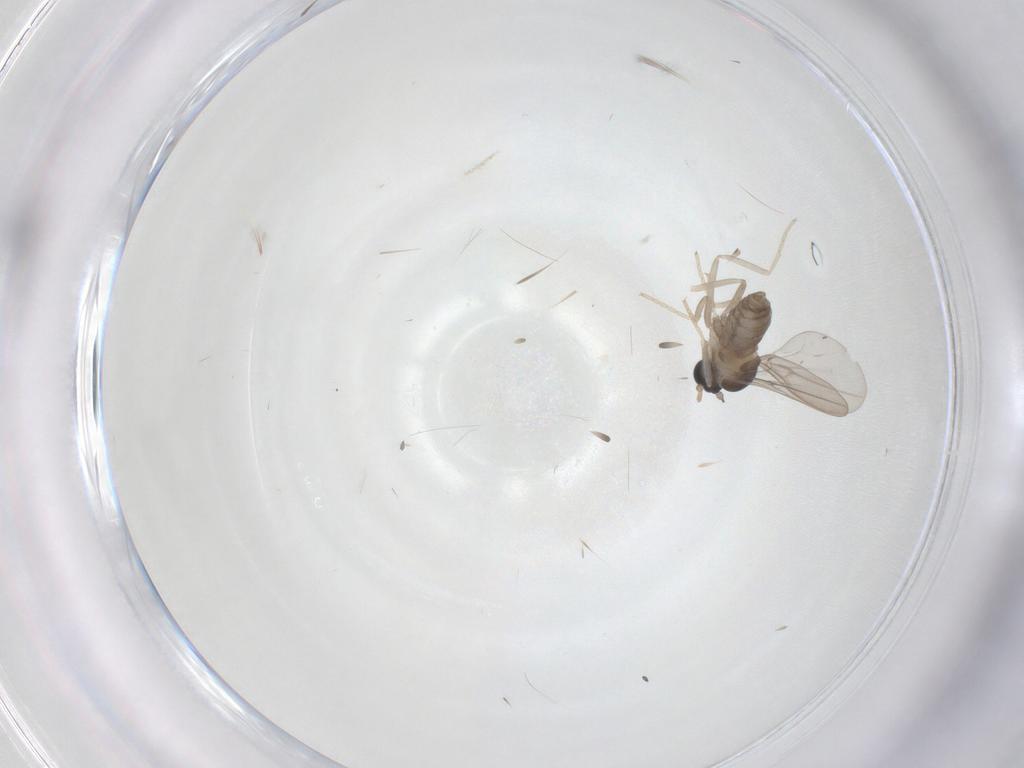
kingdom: Animalia
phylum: Arthropoda
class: Insecta
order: Diptera
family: Cecidomyiidae
